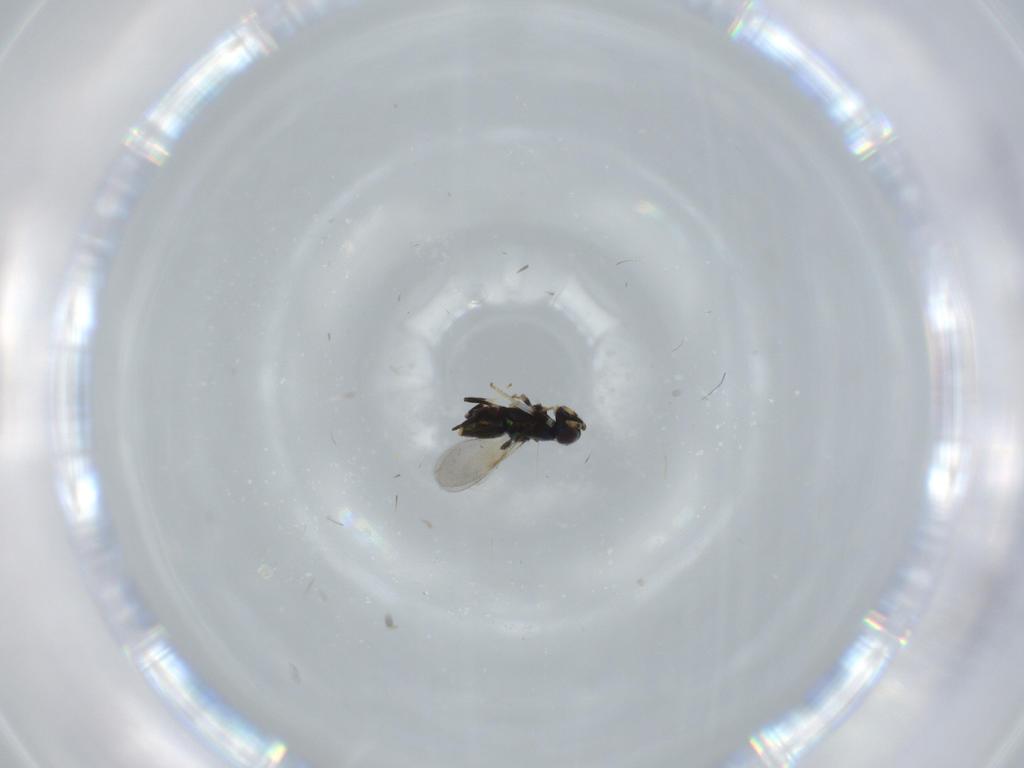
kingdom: Animalia
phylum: Arthropoda
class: Insecta
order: Hymenoptera
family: Encyrtidae
